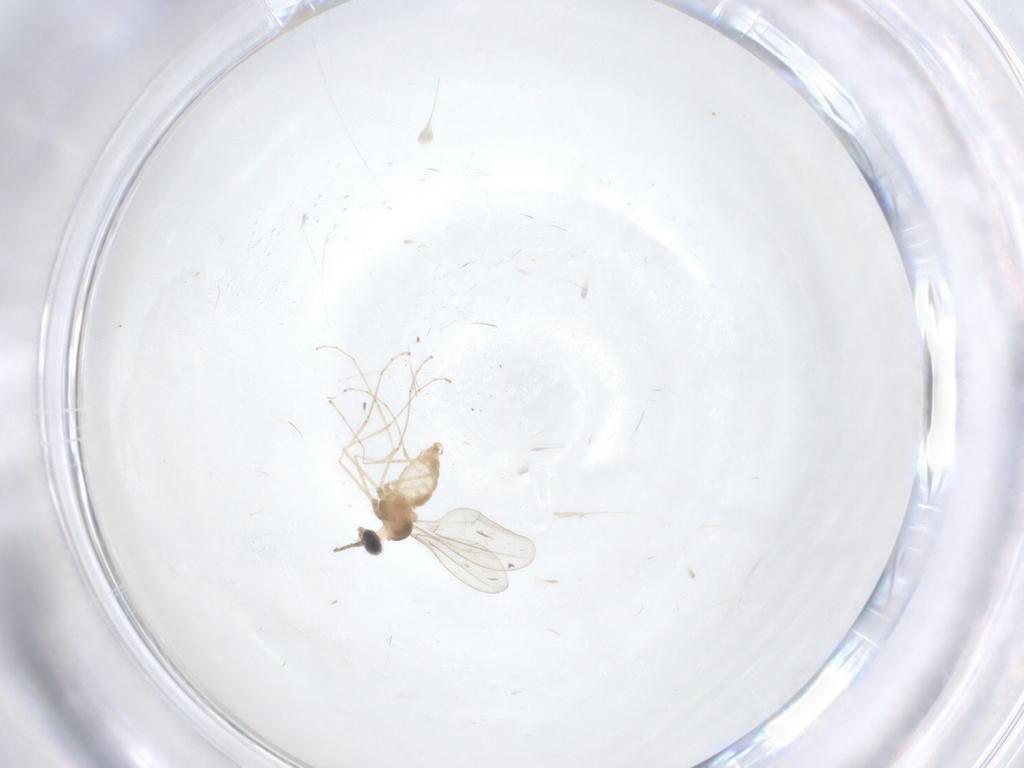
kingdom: Animalia
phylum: Arthropoda
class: Insecta
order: Diptera
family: Cecidomyiidae
